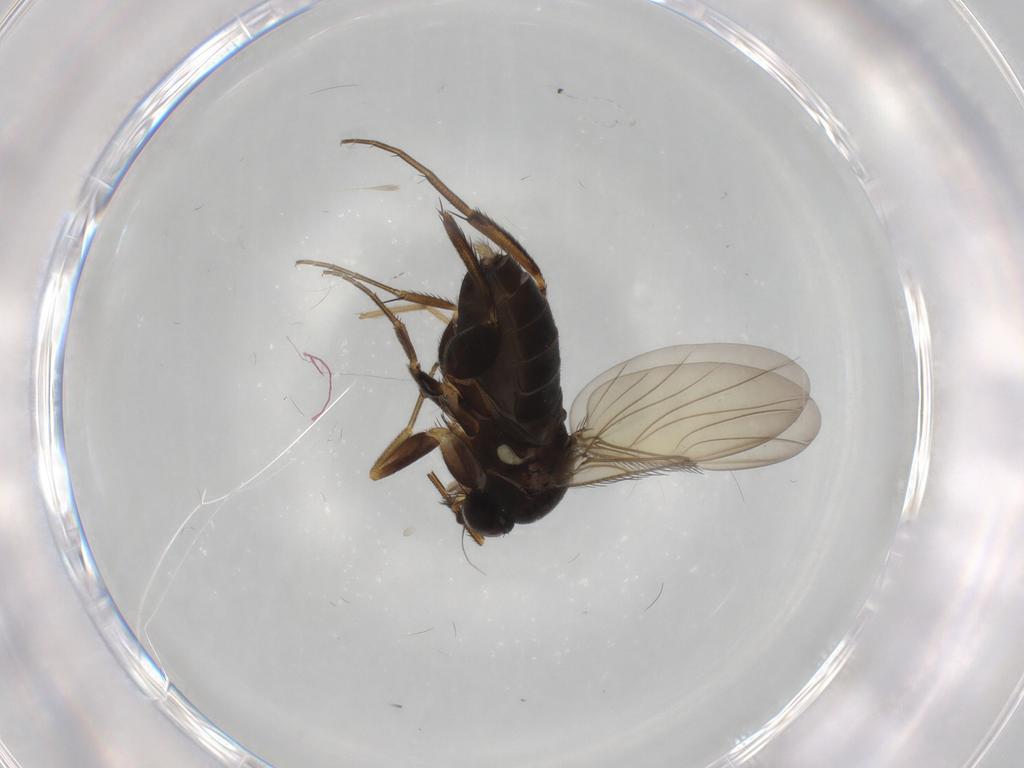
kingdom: Animalia
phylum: Arthropoda
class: Insecta
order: Diptera
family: Phoridae
